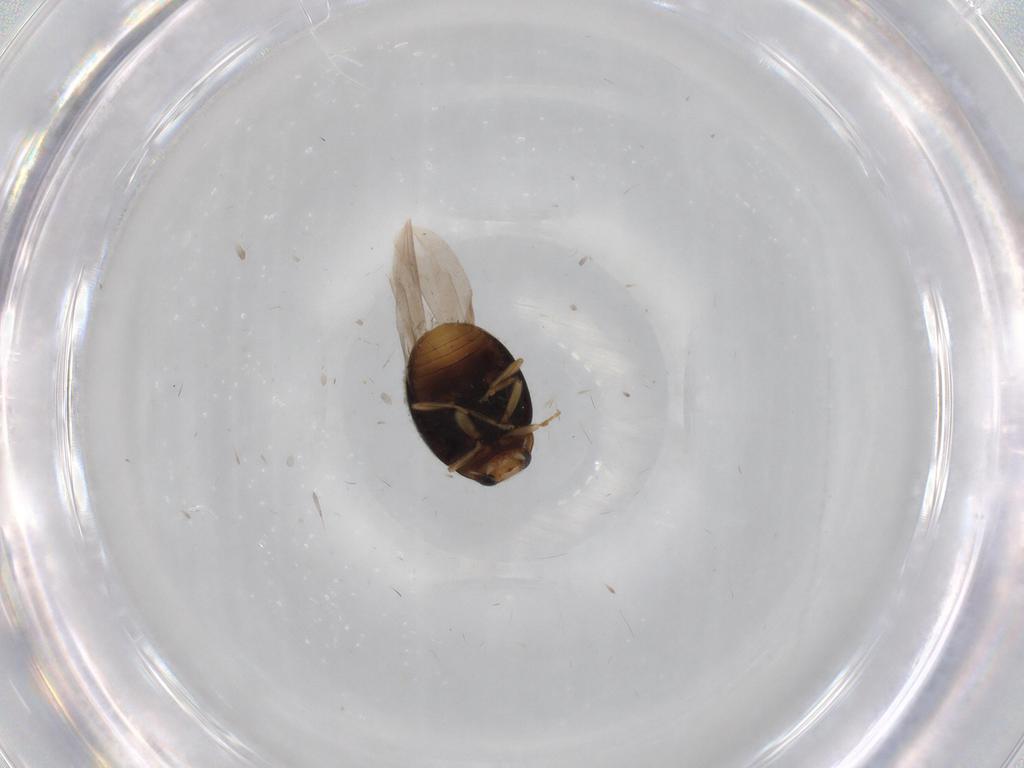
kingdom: Animalia
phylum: Arthropoda
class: Insecta
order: Coleoptera
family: Coccinellidae
